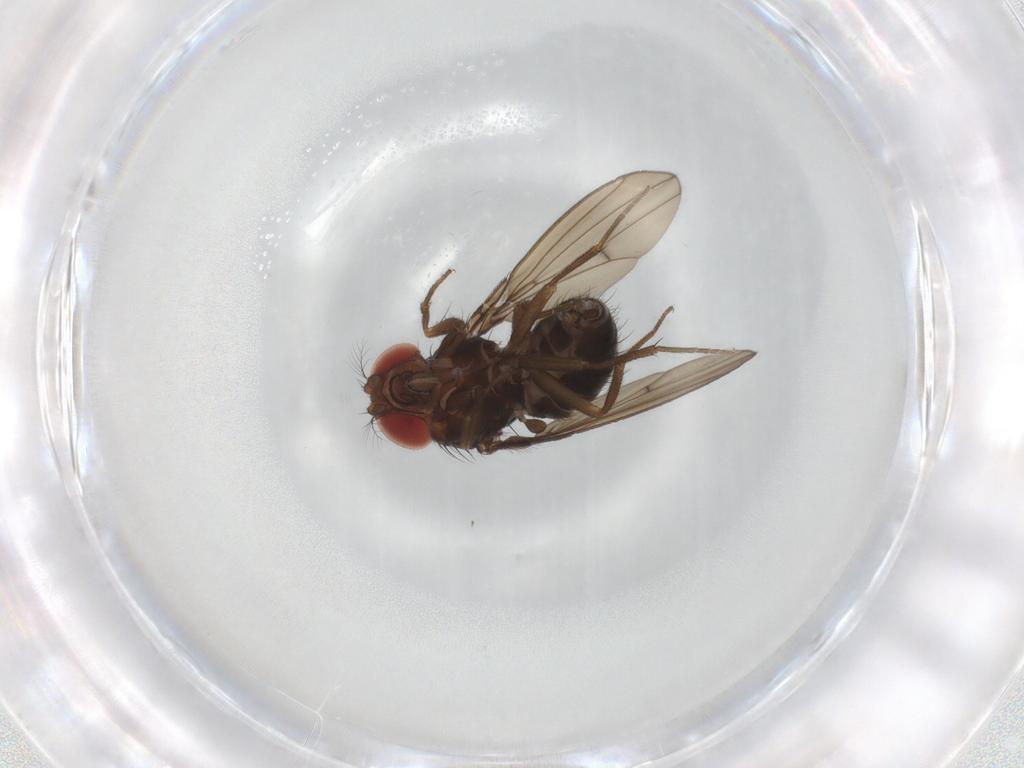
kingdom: Animalia
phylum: Arthropoda
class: Insecta
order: Diptera
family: Drosophilidae
